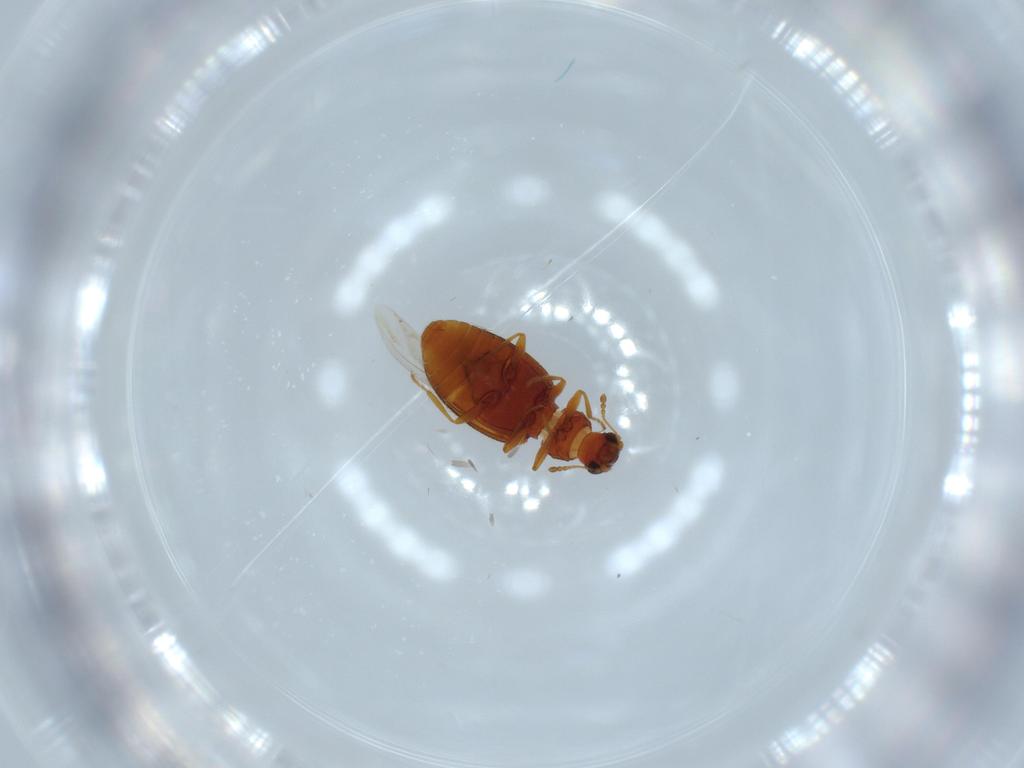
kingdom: Animalia
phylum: Arthropoda
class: Insecta
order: Coleoptera
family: Latridiidae
